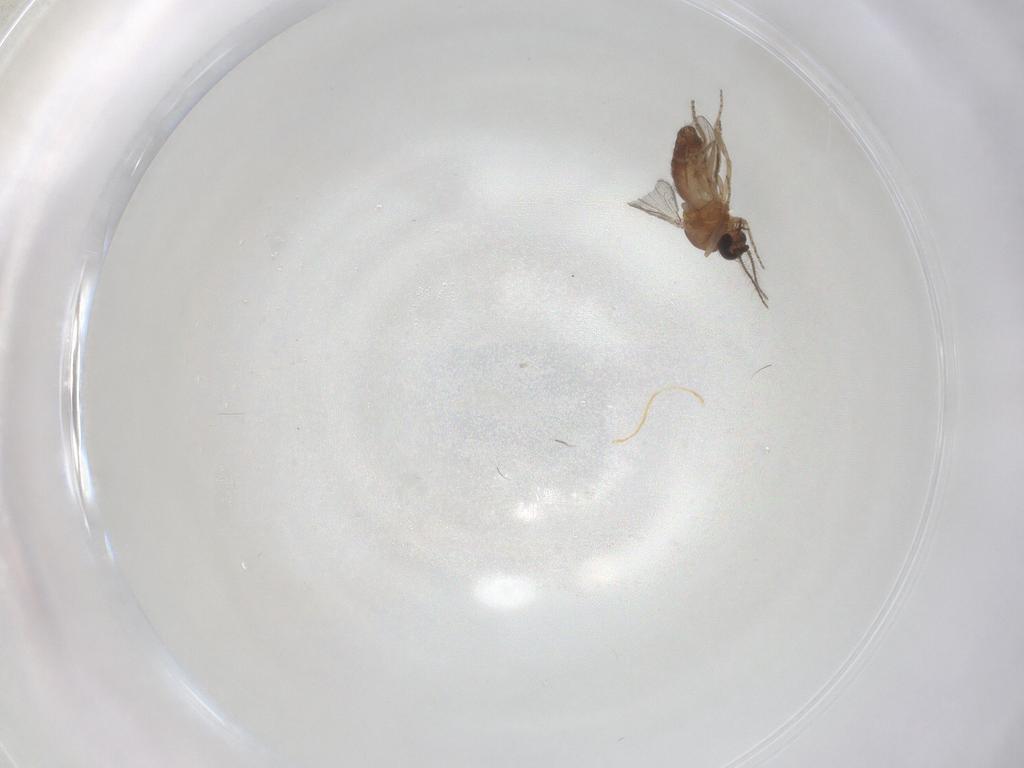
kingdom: Animalia
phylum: Arthropoda
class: Insecta
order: Diptera
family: Ceratopogonidae
